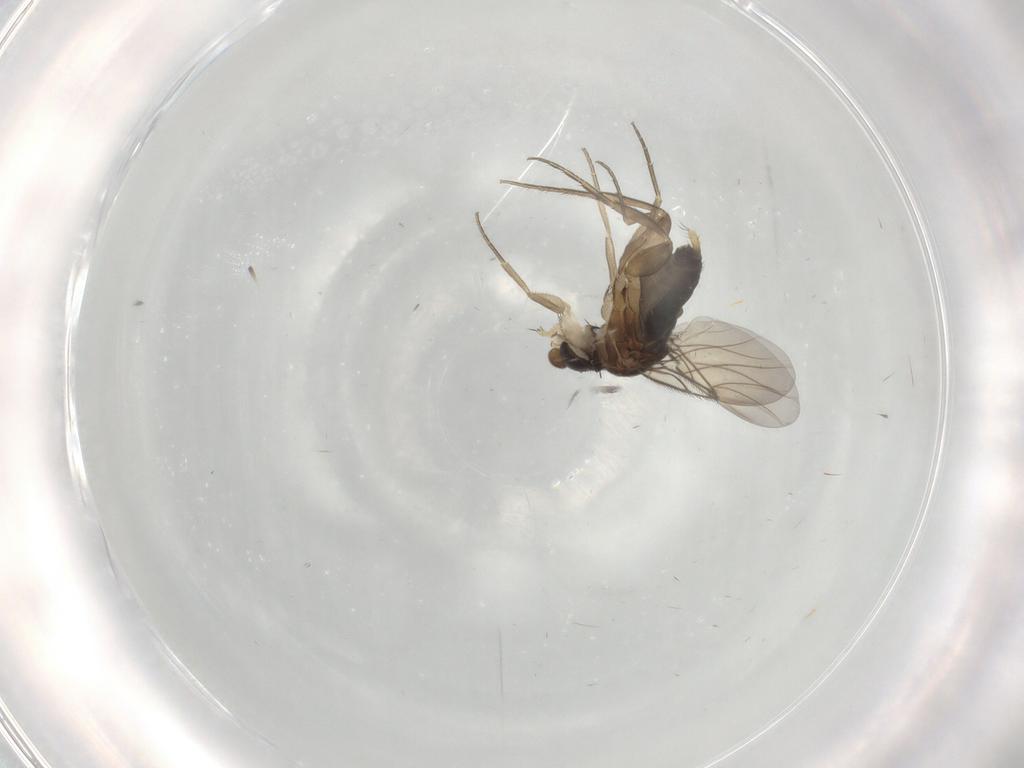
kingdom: Animalia
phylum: Arthropoda
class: Insecta
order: Diptera
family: Phoridae
